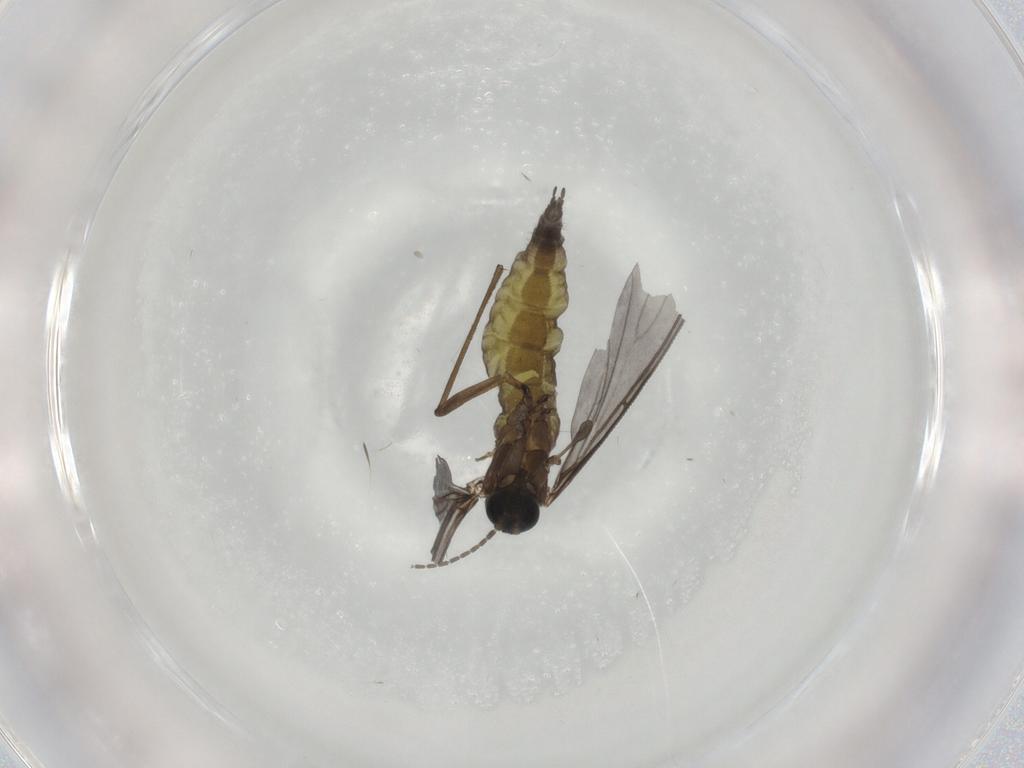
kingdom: Animalia
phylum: Arthropoda
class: Insecta
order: Diptera
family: Sciaridae
